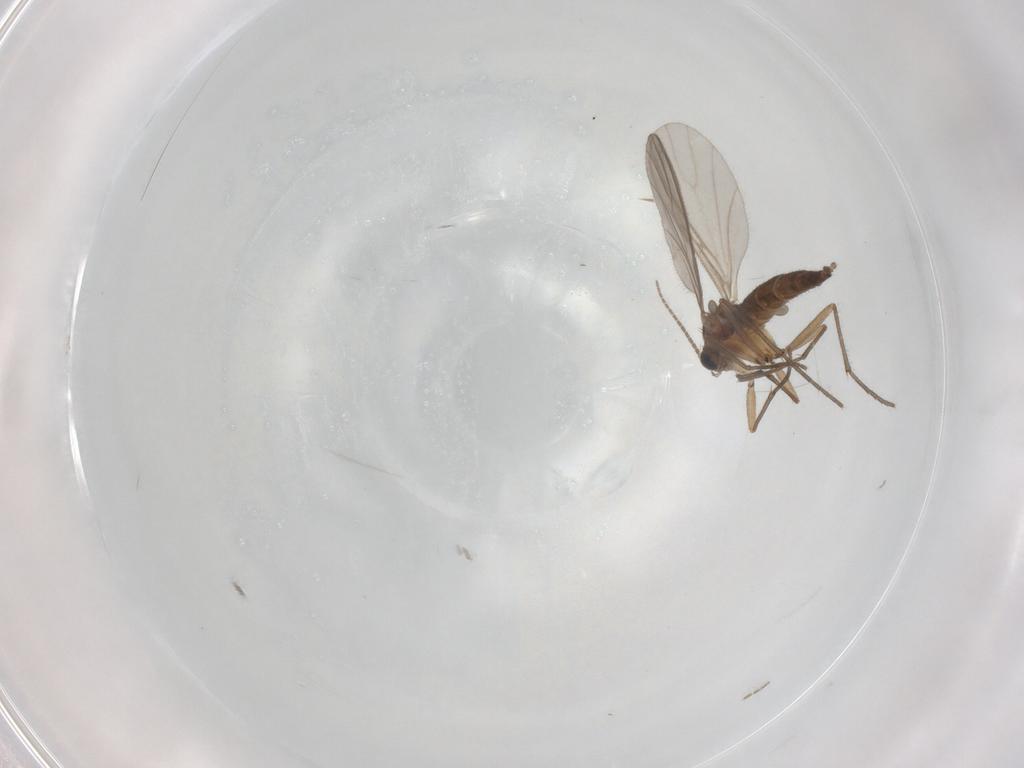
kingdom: Animalia
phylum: Arthropoda
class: Insecta
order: Diptera
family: Sciaridae
